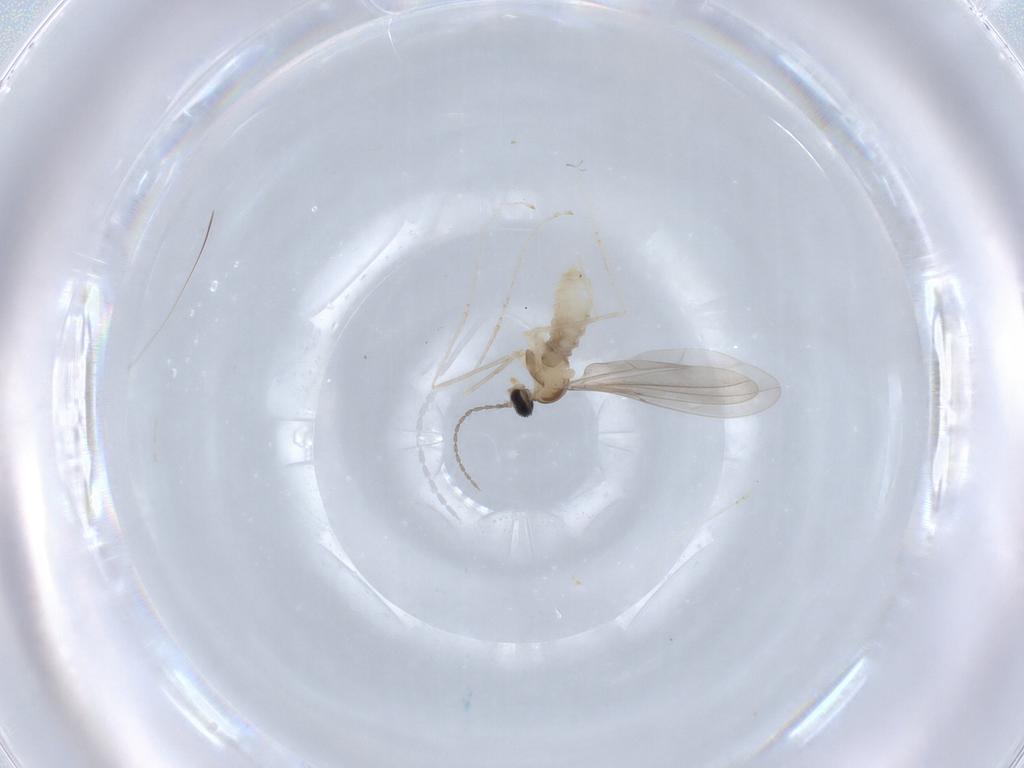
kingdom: Animalia
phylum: Arthropoda
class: Insecta
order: Diptera
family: Cecidomyiidae
